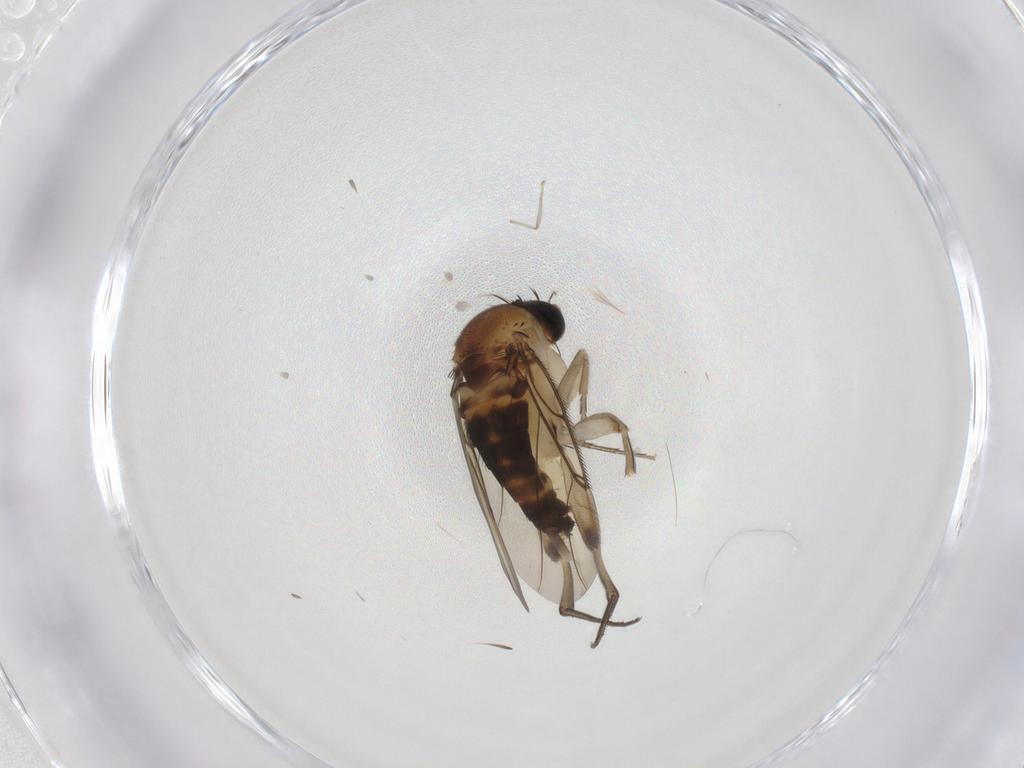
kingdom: Animalia
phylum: Arthropoda
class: Insecta
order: Diptera
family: Phoridae
